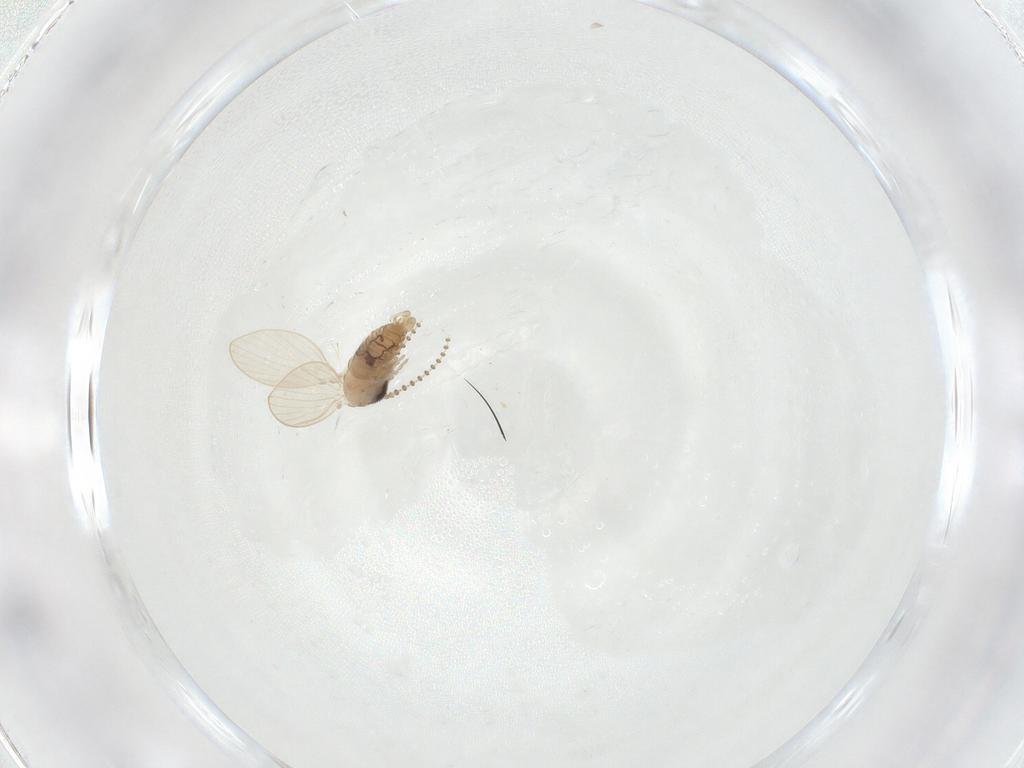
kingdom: Animalia
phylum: Arthropoda
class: Insecta
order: Diptera
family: Psychodidae
